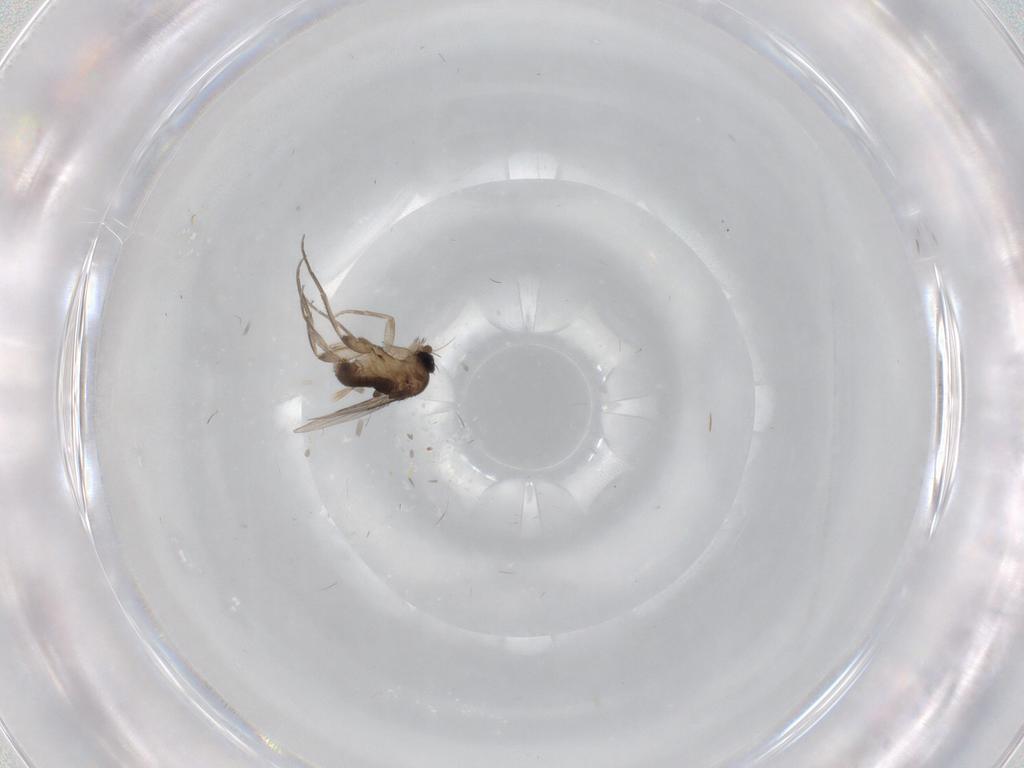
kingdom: Animalia
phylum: Arthropoda
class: Insecta
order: Diptera
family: Phoridae
